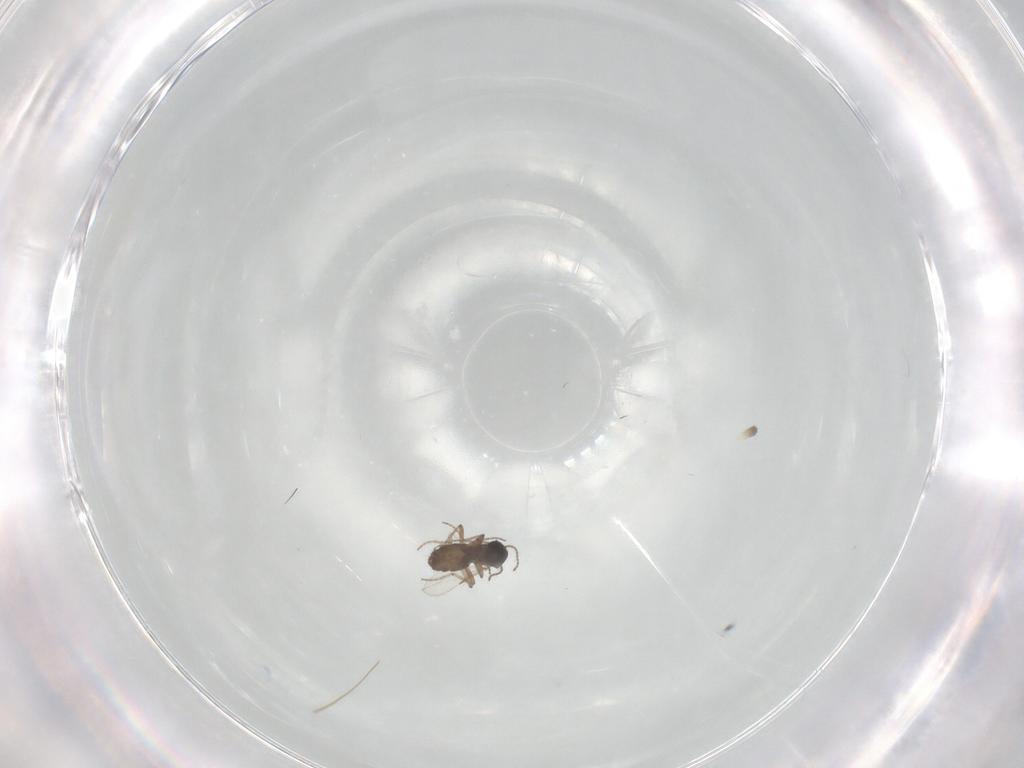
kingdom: Animalia
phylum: Arthropoda
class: Insecta
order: Diptera
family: Ceratopogonidae
